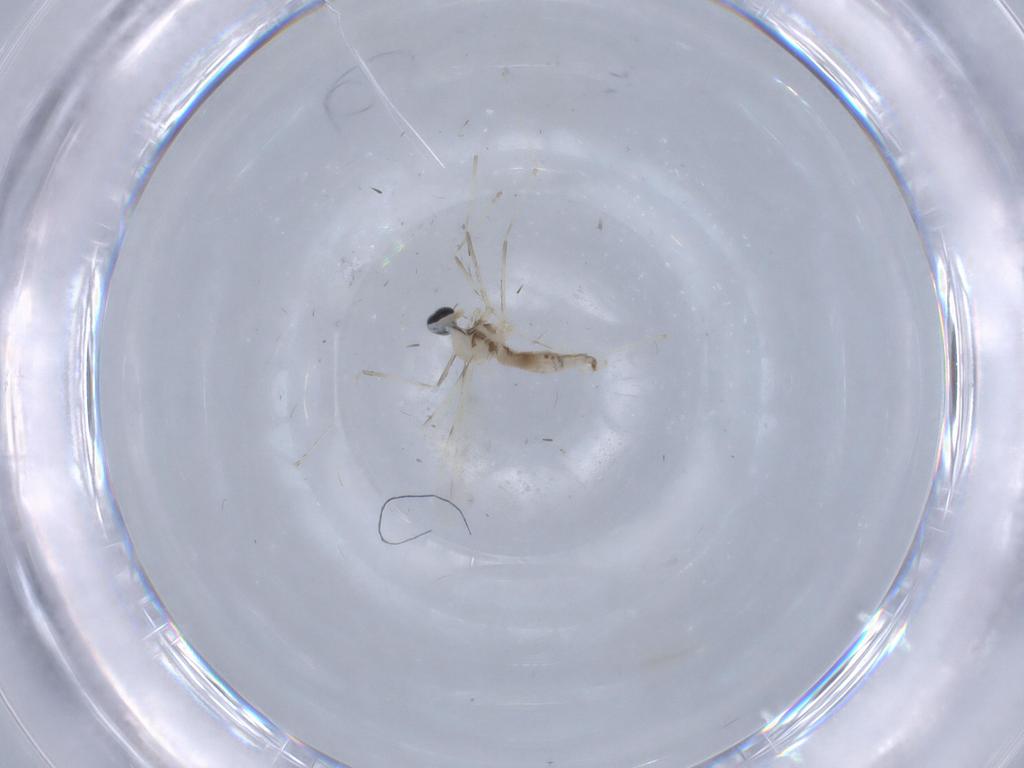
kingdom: Animalia
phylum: Arthropoda
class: Insecta
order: Diptera
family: Cecidomyiidae
